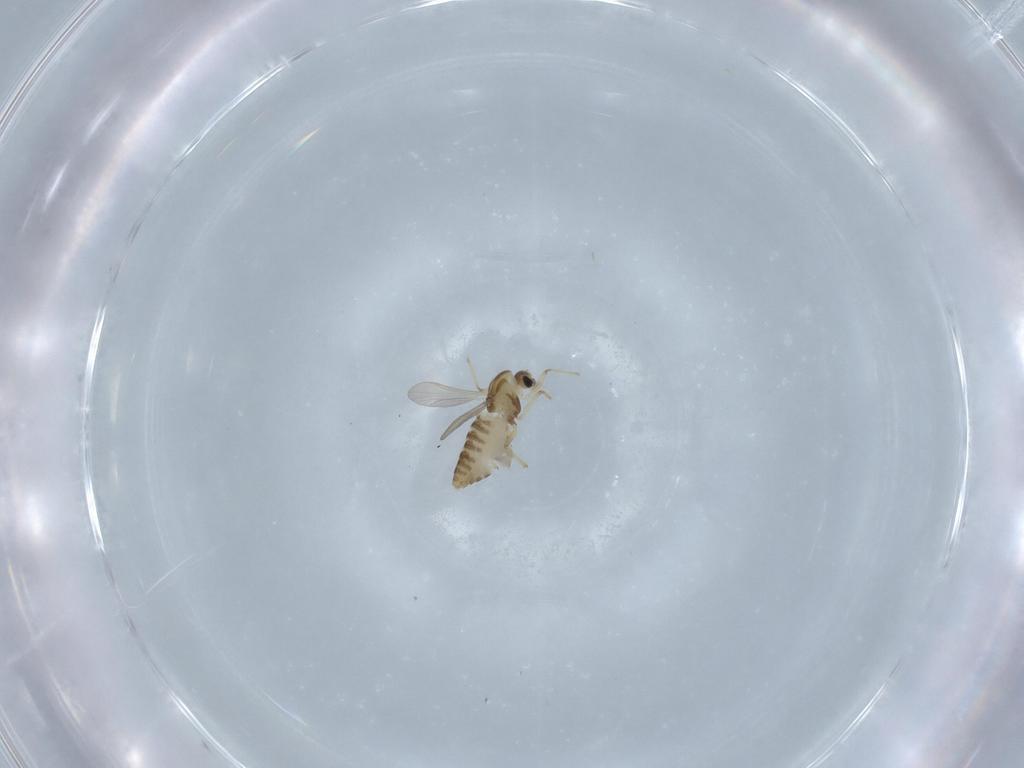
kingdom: Animalia
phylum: Arthropoda
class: Insecta
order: Diptera
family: Chironomidae
